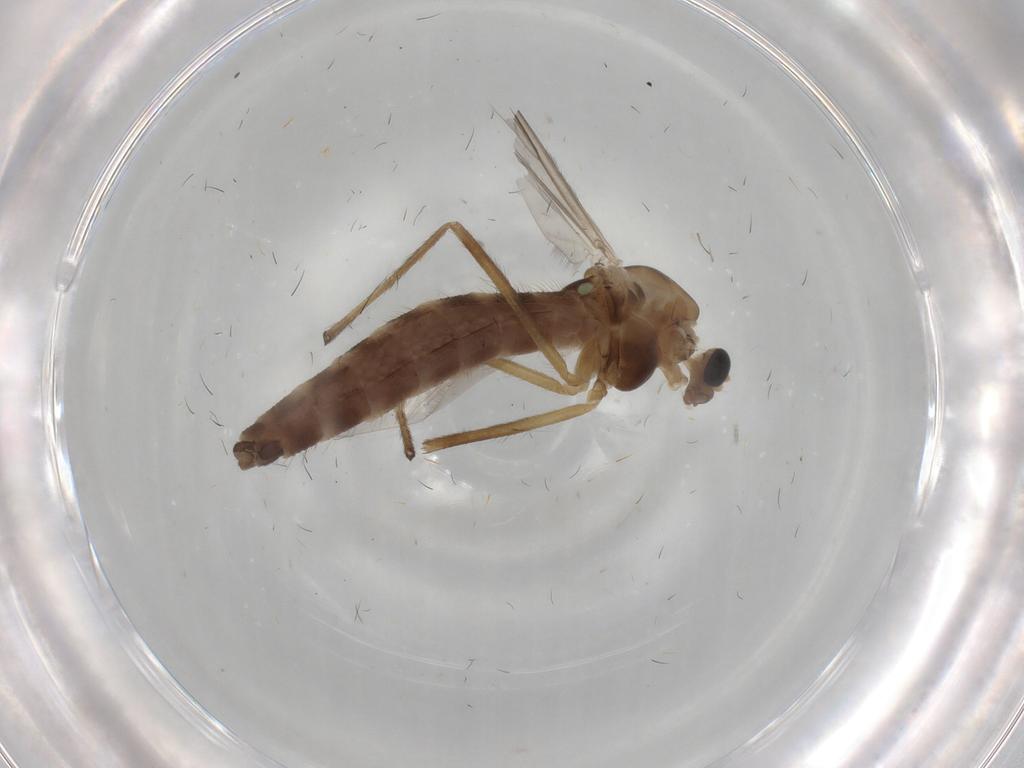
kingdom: Animalia
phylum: Arthropoda
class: Insecta
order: Diptera
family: Chironomidae
